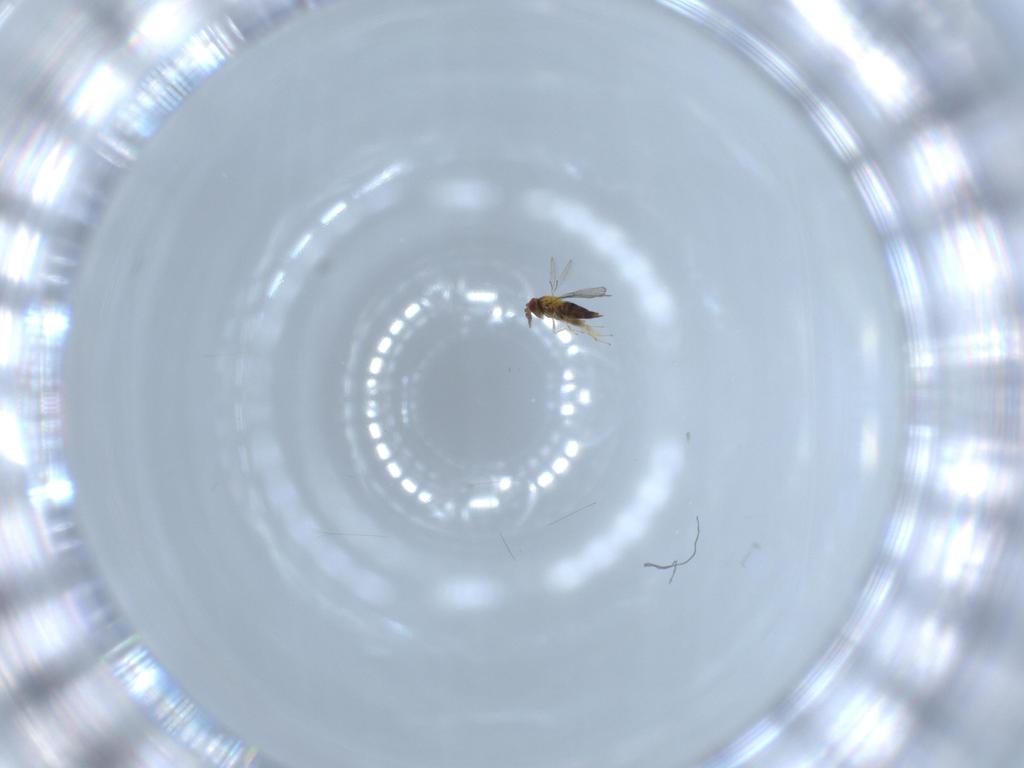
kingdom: Animalia
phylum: Arthropoda
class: Insecta
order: Hymenoptera
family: Trichogrammatidae
